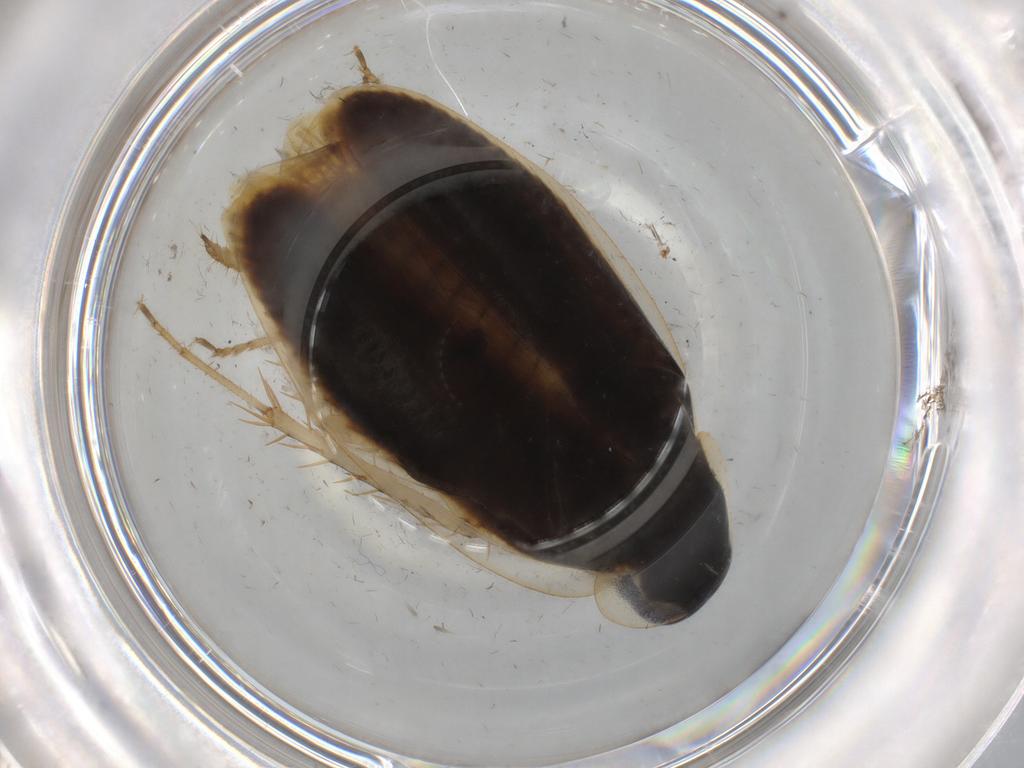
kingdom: Animalia
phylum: Arthropoda
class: Insecta
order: Blattodea
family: Ectobiidae
